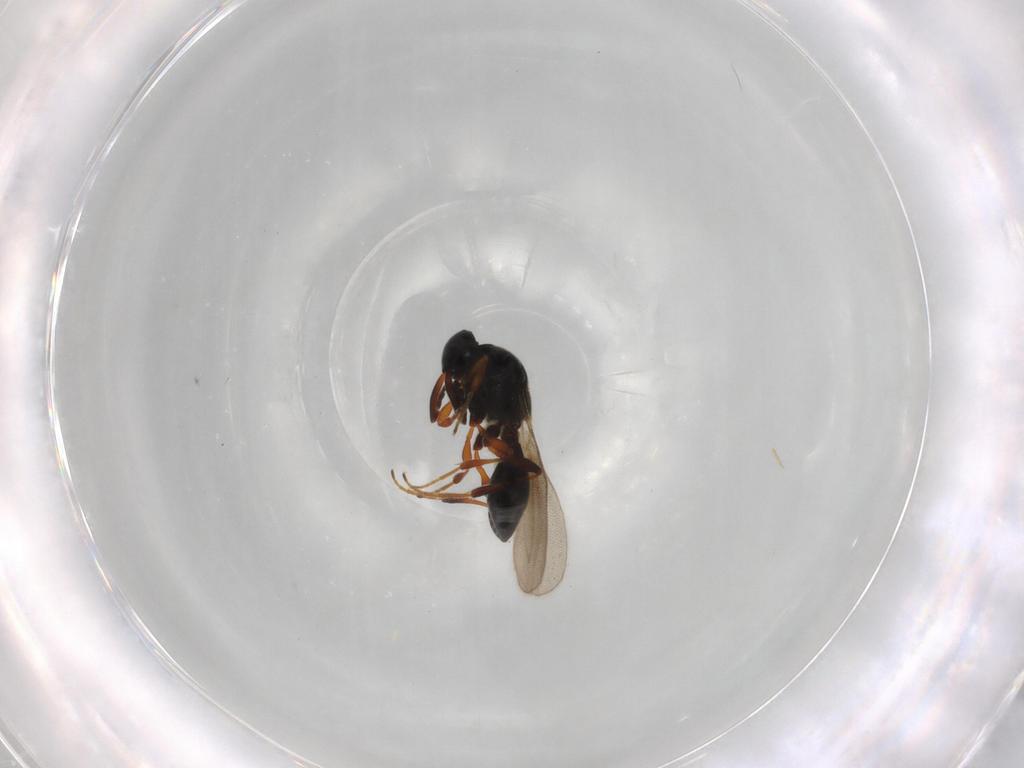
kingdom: Animalia
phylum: Arthropoda
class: Insecta
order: Hymenoptera
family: Platygastridae
